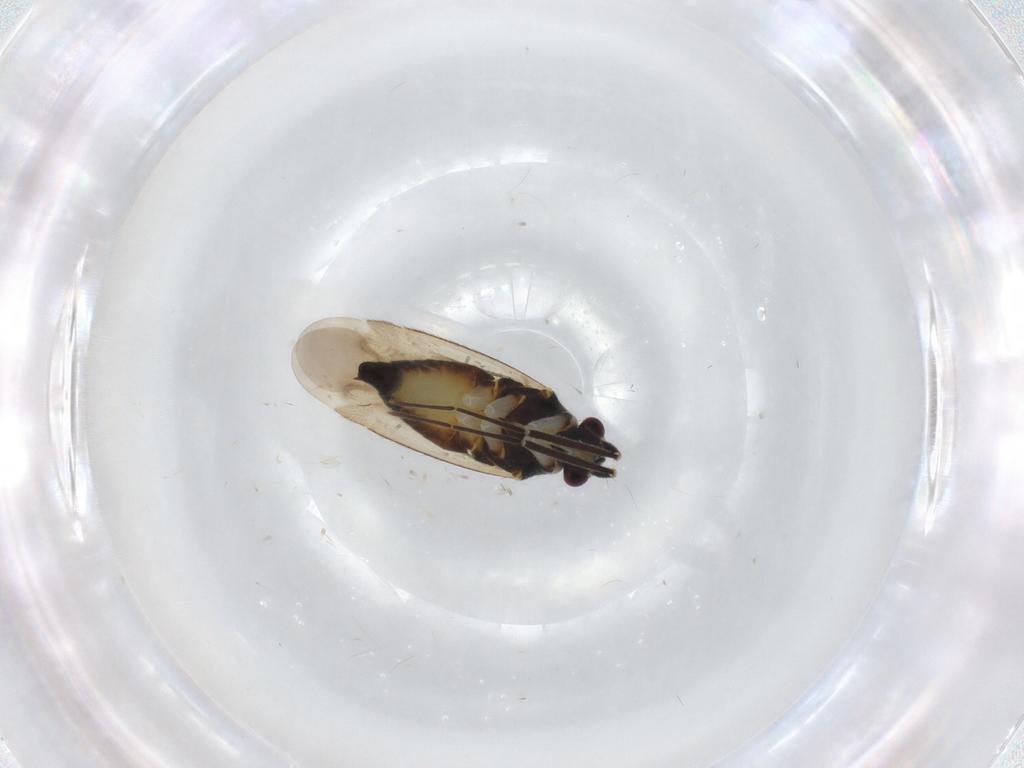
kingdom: Animalia
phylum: Arthropoda
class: Insecta
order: Hemiptera
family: Miridae
